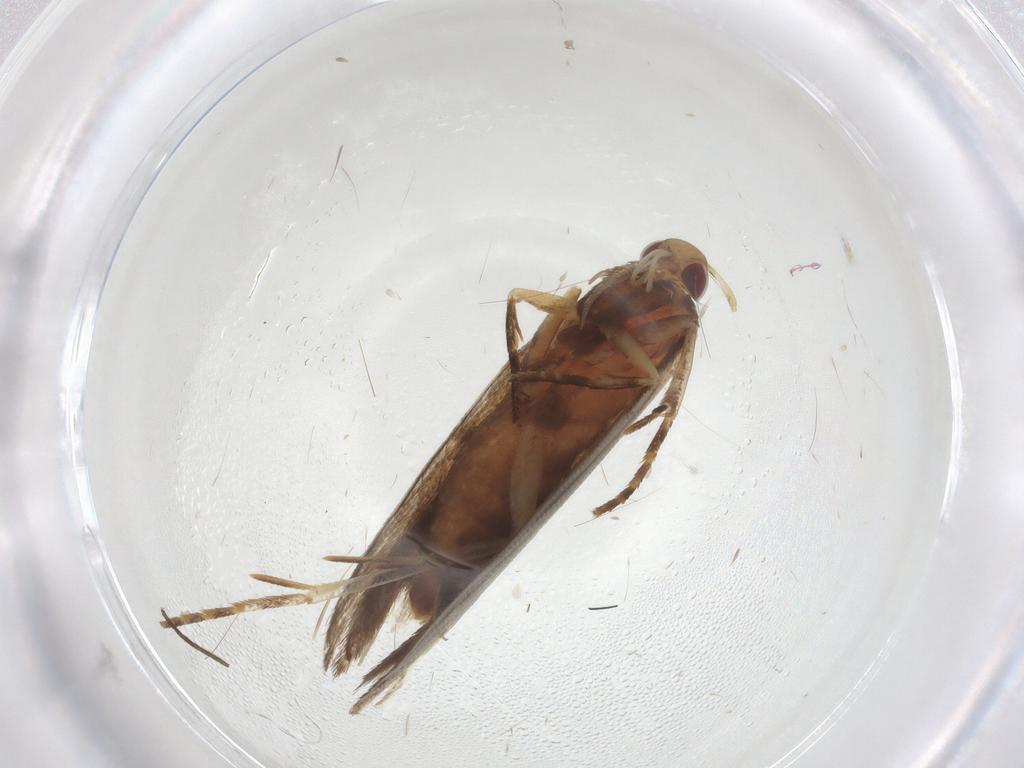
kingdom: Animalia
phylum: Arthropoda
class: Insecta
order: Lepidoptera
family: Gelechiidae
